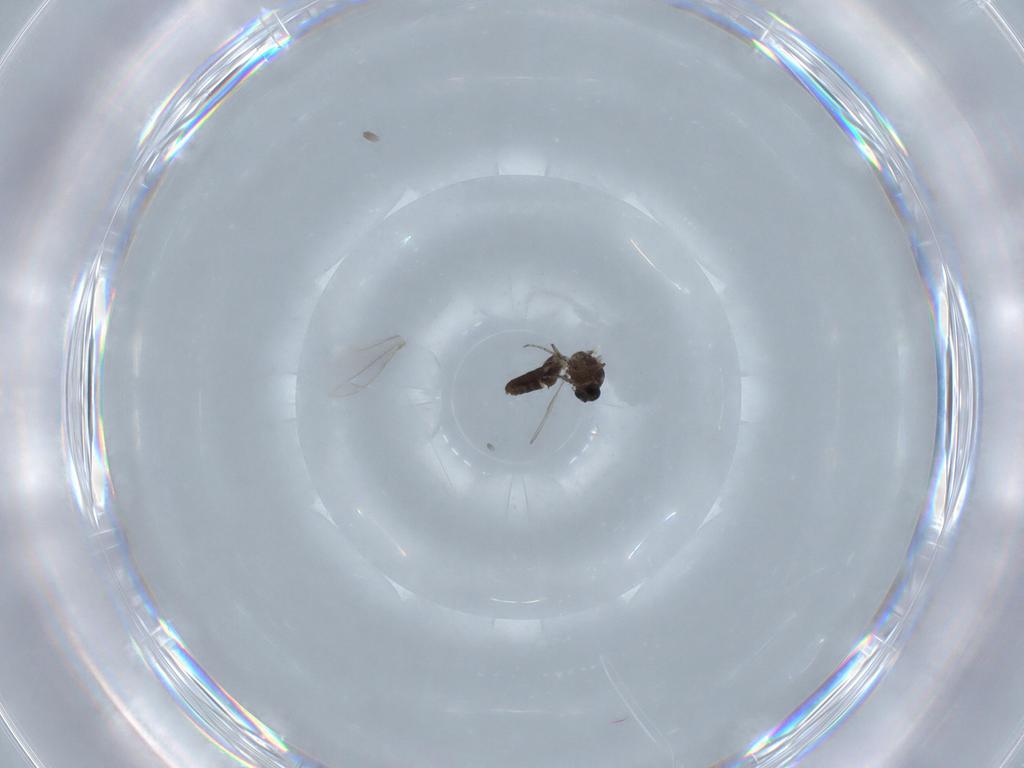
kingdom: Animalia
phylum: Arthropoda
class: Insecta
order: Diptera
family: Ceratopogonidae
